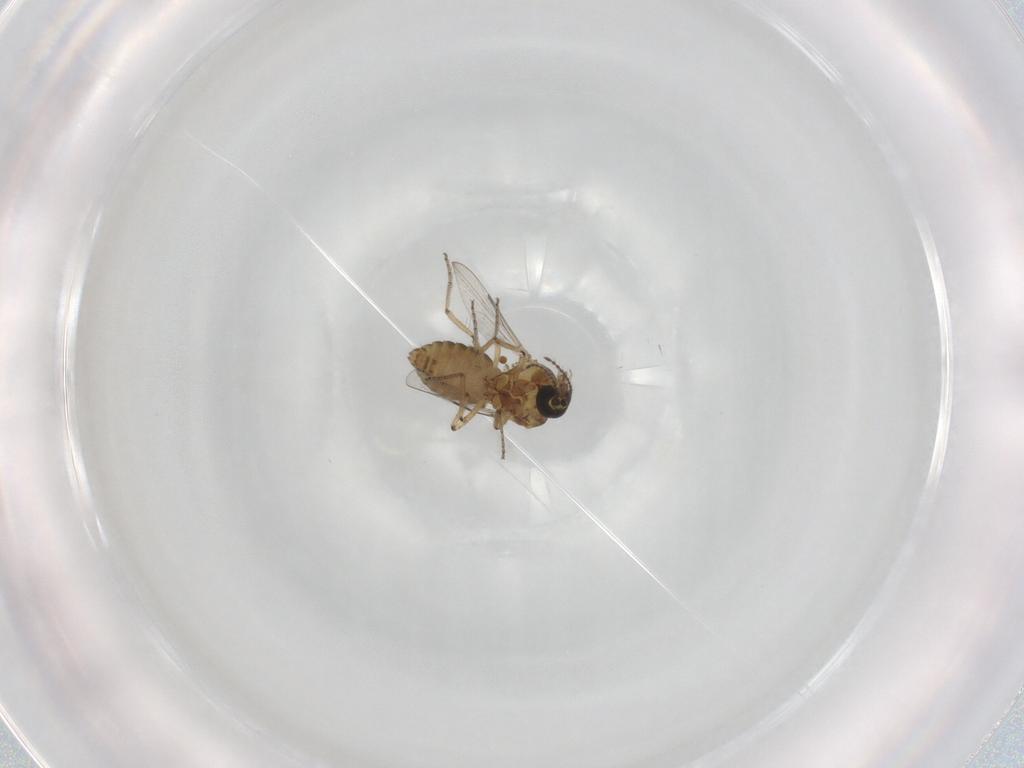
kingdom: Animalia
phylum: Arthropoda
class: Insecta
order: Diptera
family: Ceratopogonidae
